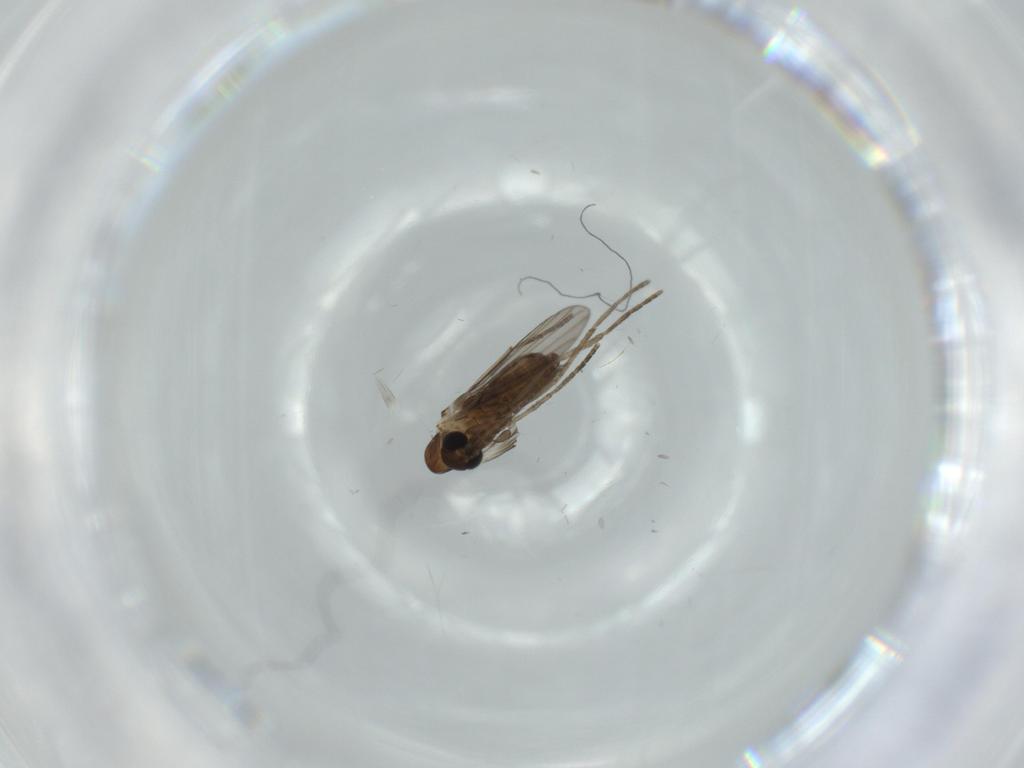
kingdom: Animalia
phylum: Arthropoda
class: Insecta
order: Diptera
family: Psychodidae
